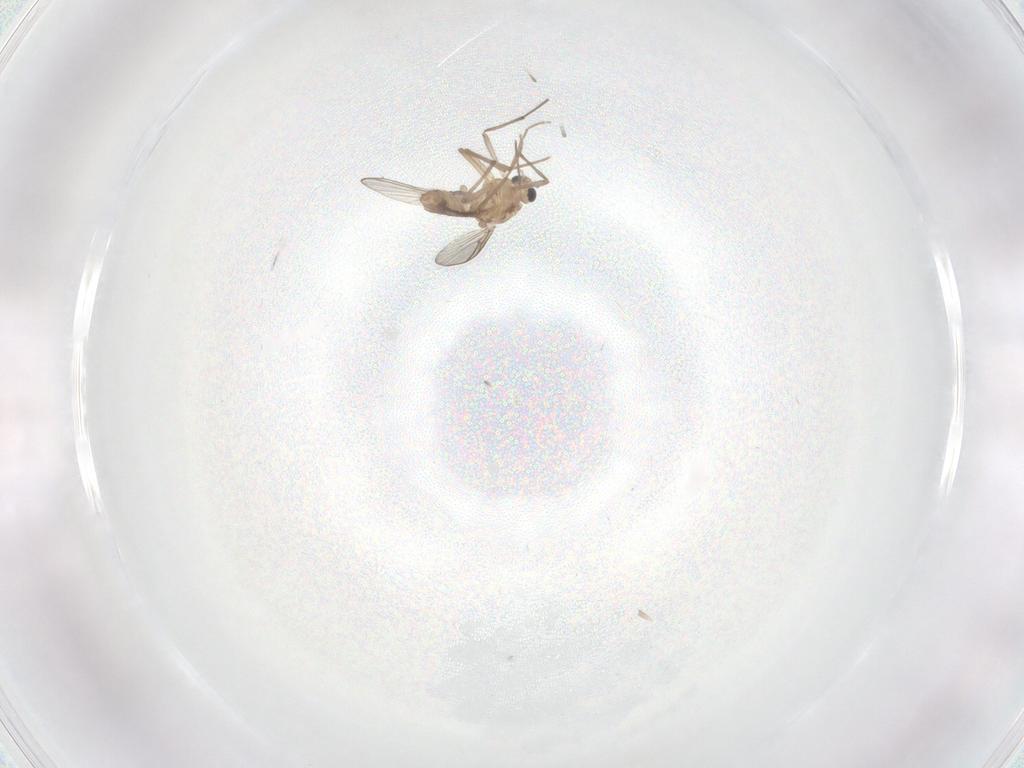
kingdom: Animalia
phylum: Arthropoda
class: Insecta
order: Diptera
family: Chironomidae
